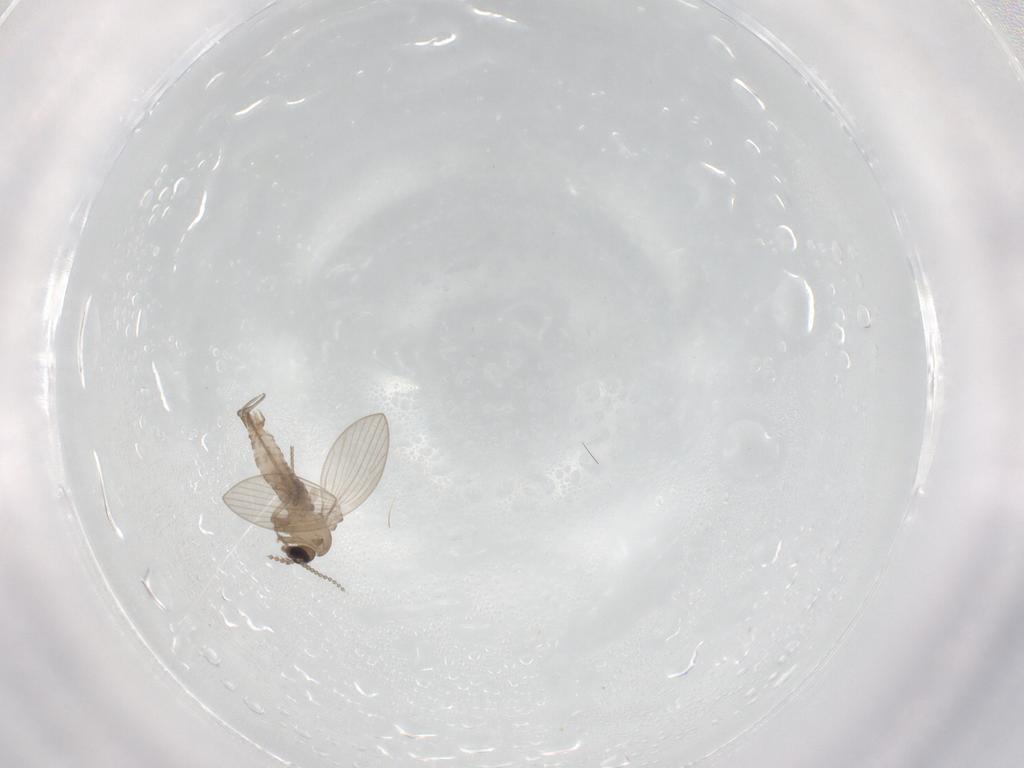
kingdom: Animalia
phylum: Arthropoda
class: Insecta
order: Diptera
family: Psychodidae
